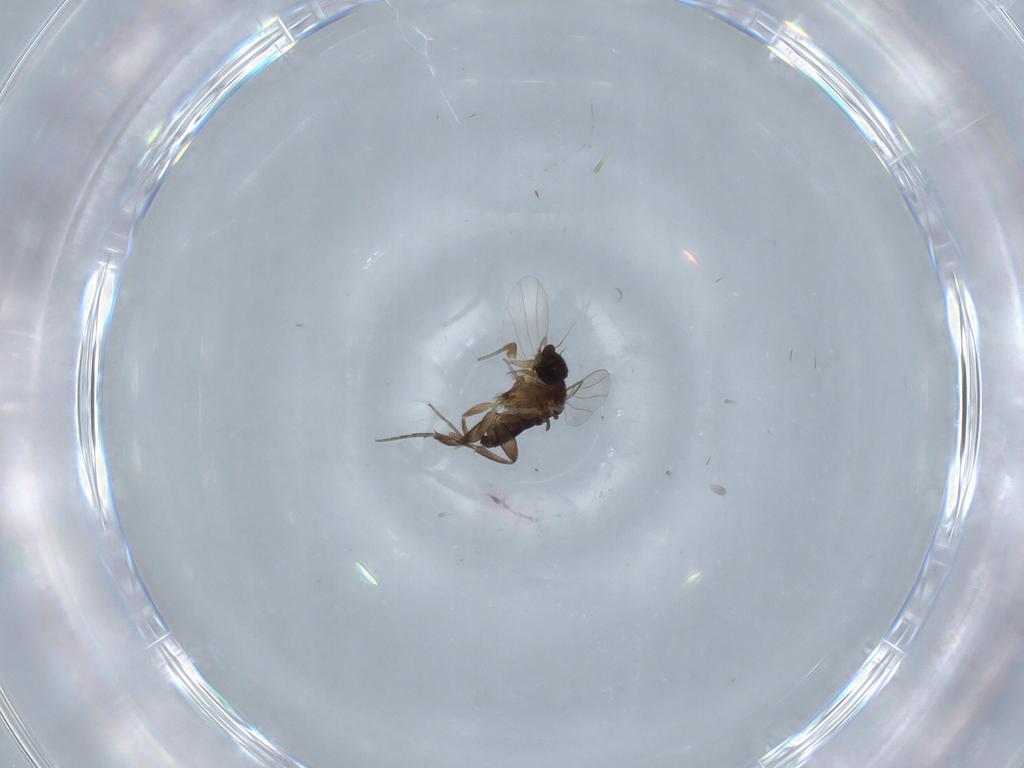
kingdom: Animalia
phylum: Arthropoda
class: Insecta
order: Diptera
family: Phoridae
